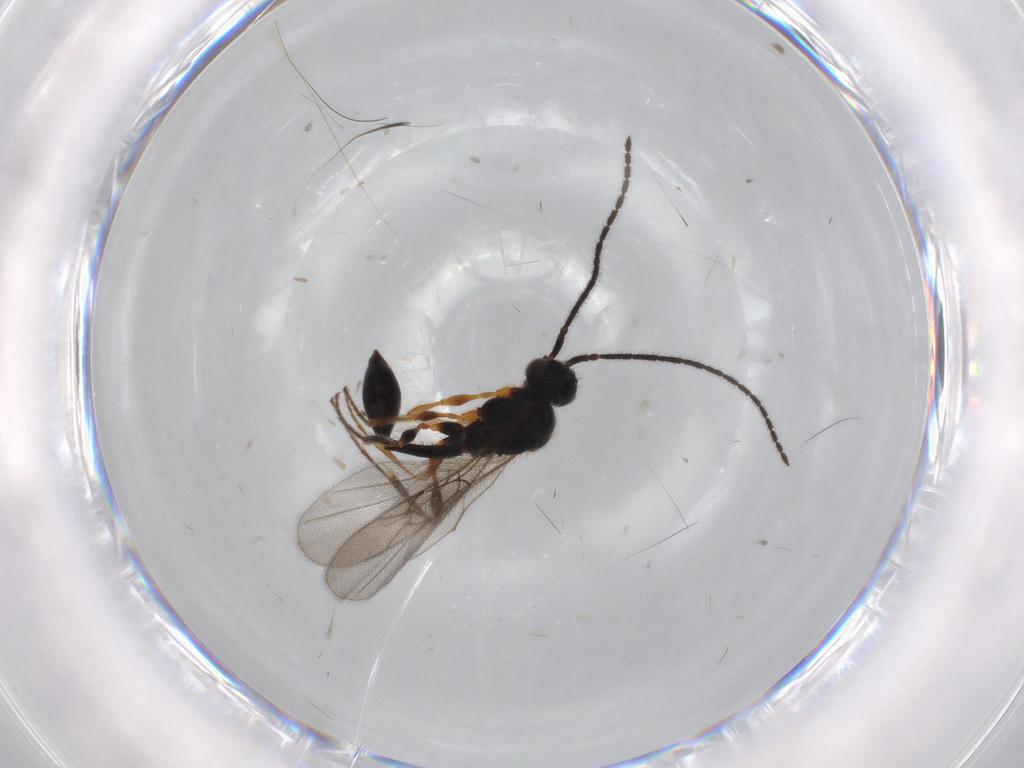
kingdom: Animalia
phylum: Arthropoda
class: Insecta
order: Hymenoptera
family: Diapriidae
